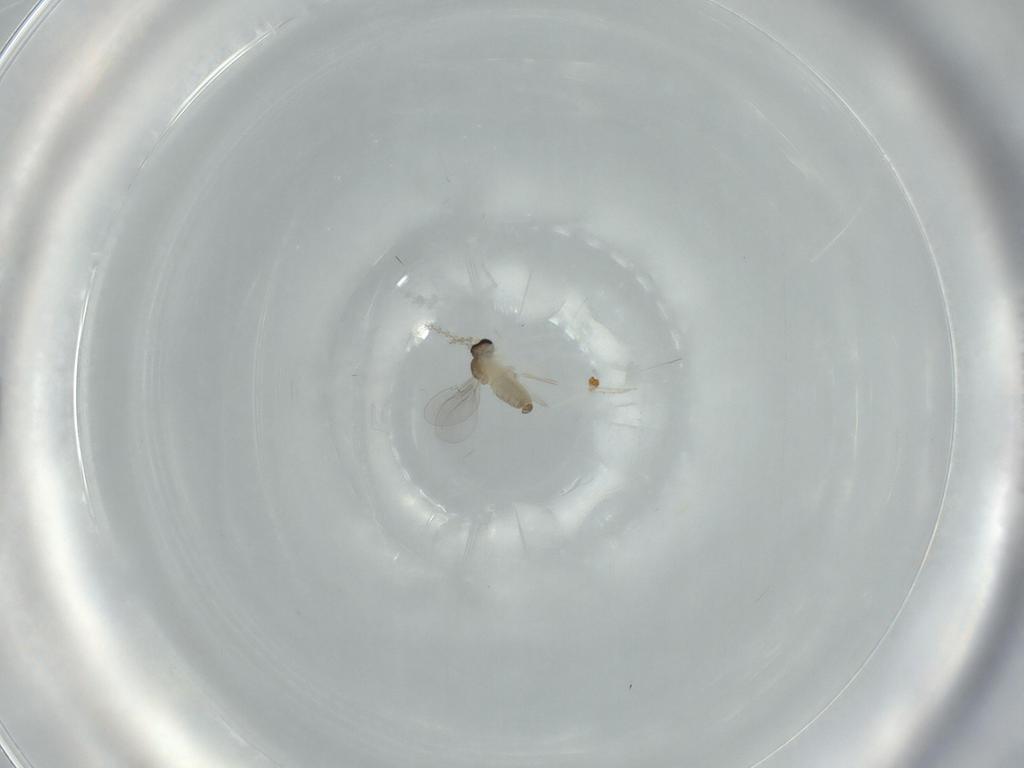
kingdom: Animalia
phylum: Arthropoda
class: Insecta
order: Diptera
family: Cecidomyiidae
